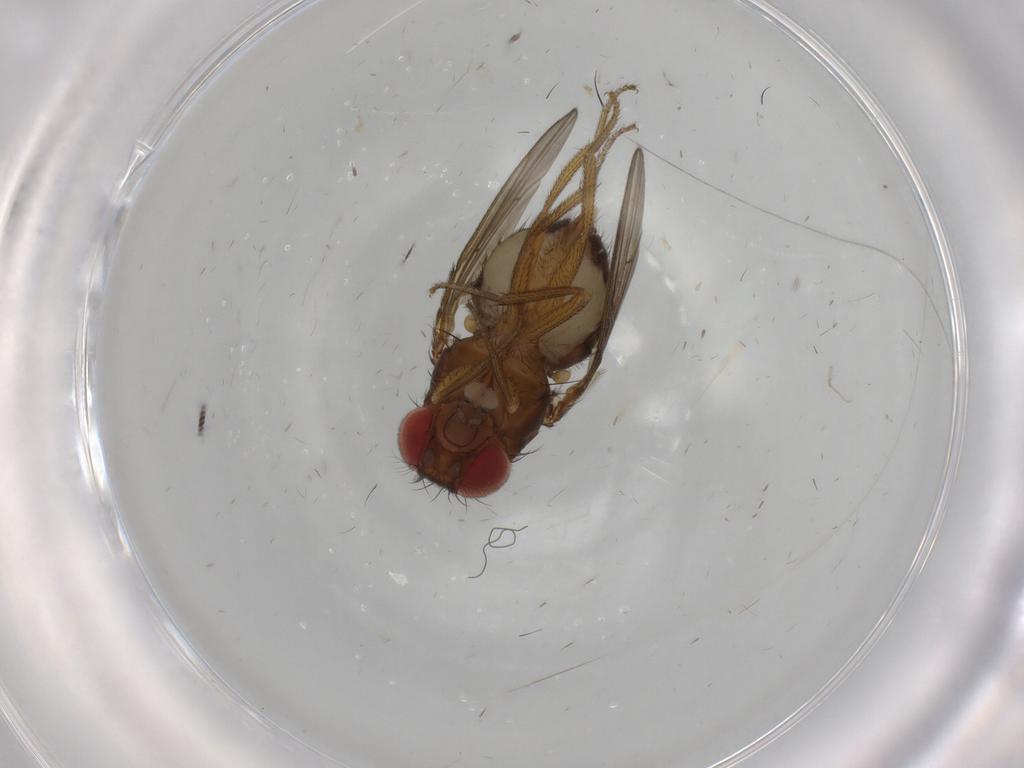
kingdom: Animalia
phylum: Arthropoda
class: Insecta
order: Diptera
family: Drosophilidae
